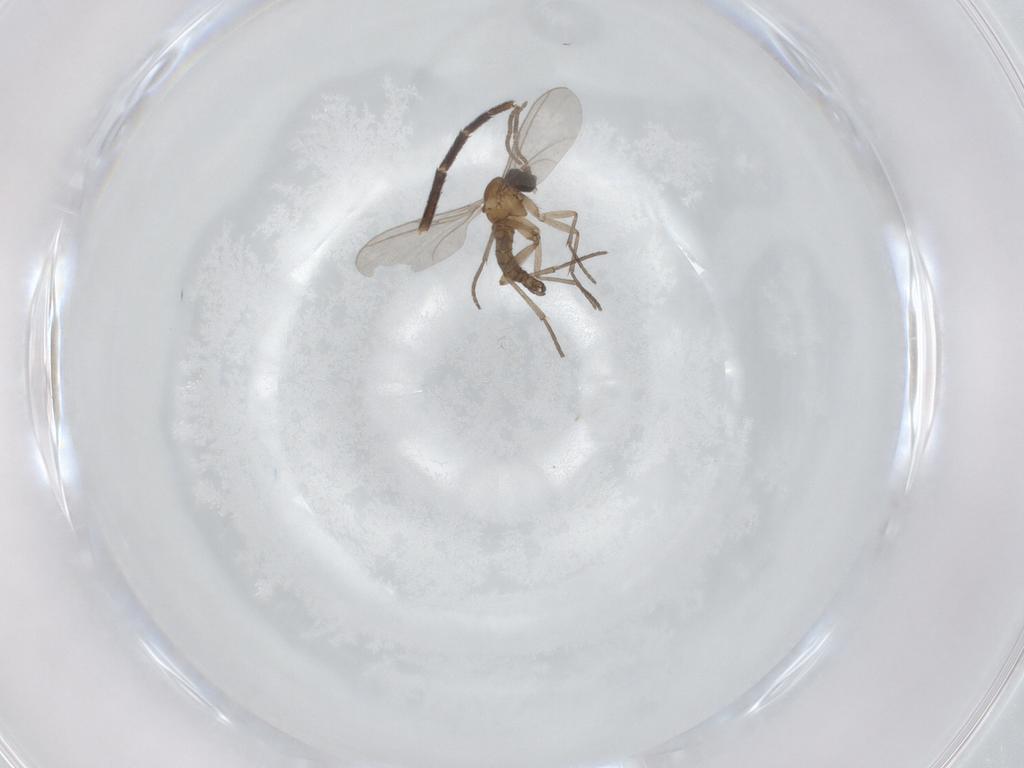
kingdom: Animalia
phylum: Arthropoda
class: Insecta
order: Diptera
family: Sciaridae
